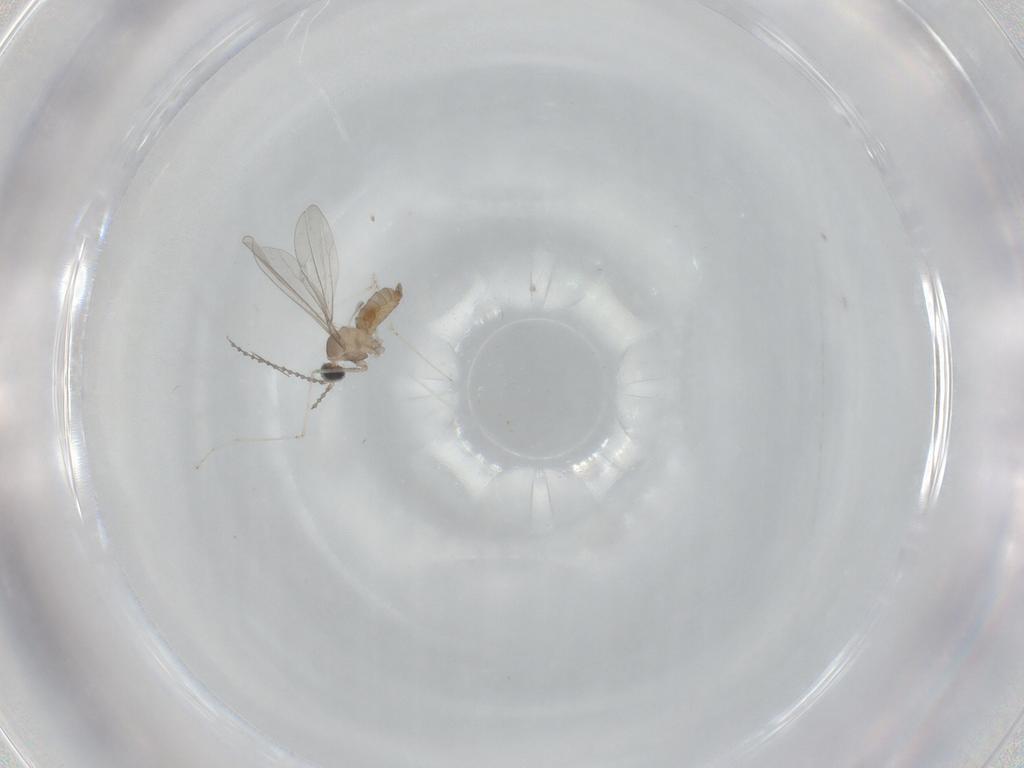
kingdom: Animalia
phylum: Arthropoda
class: Insecta
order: Diptera
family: Cecidomyiidae
